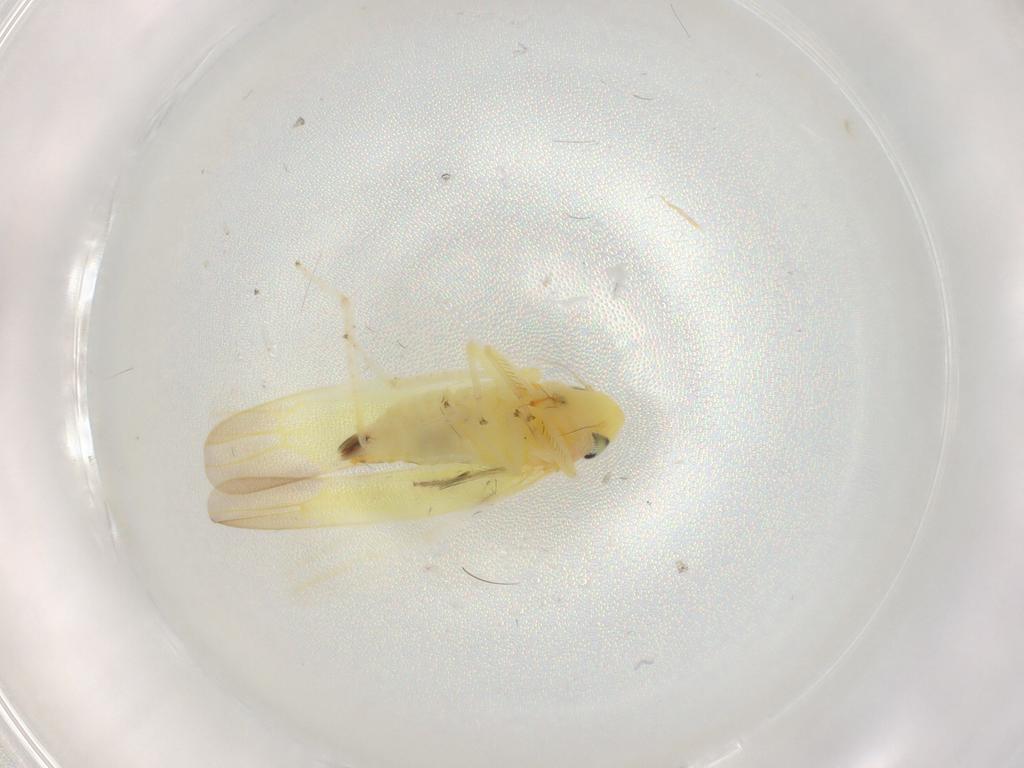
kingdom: Animalia
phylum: Arthropoda
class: Insecta
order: Hemiptera
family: Cicadellidae
